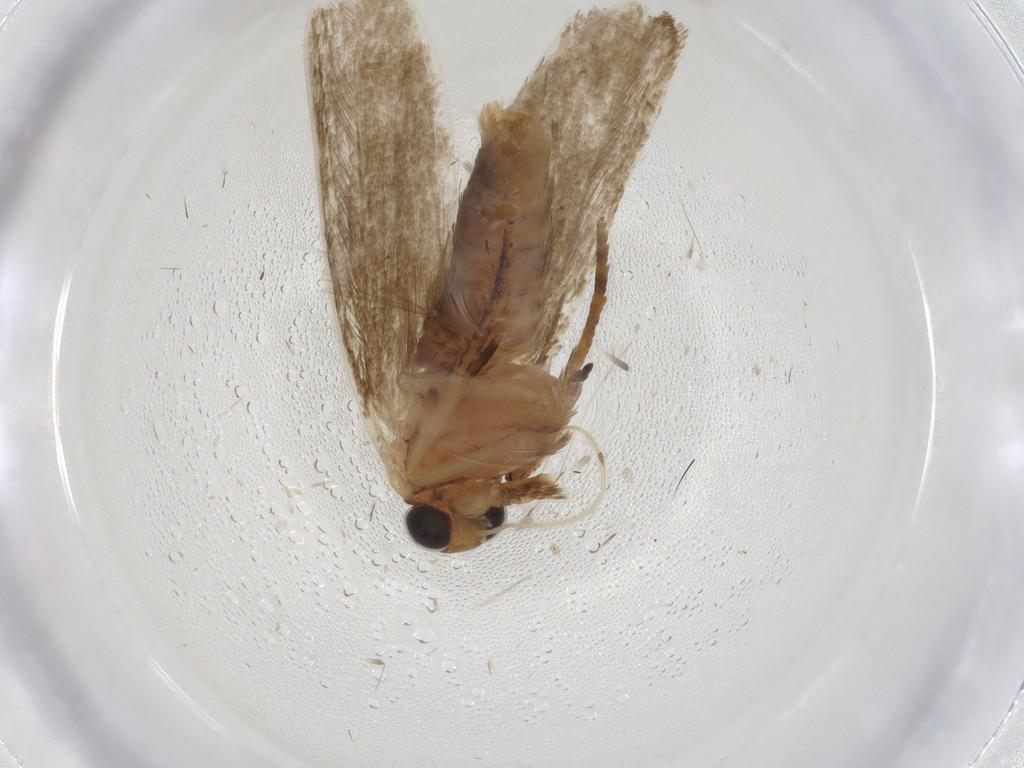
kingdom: Animalia
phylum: Arthropoda
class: Insecta
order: Lepidoptera
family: Blastobasidae
